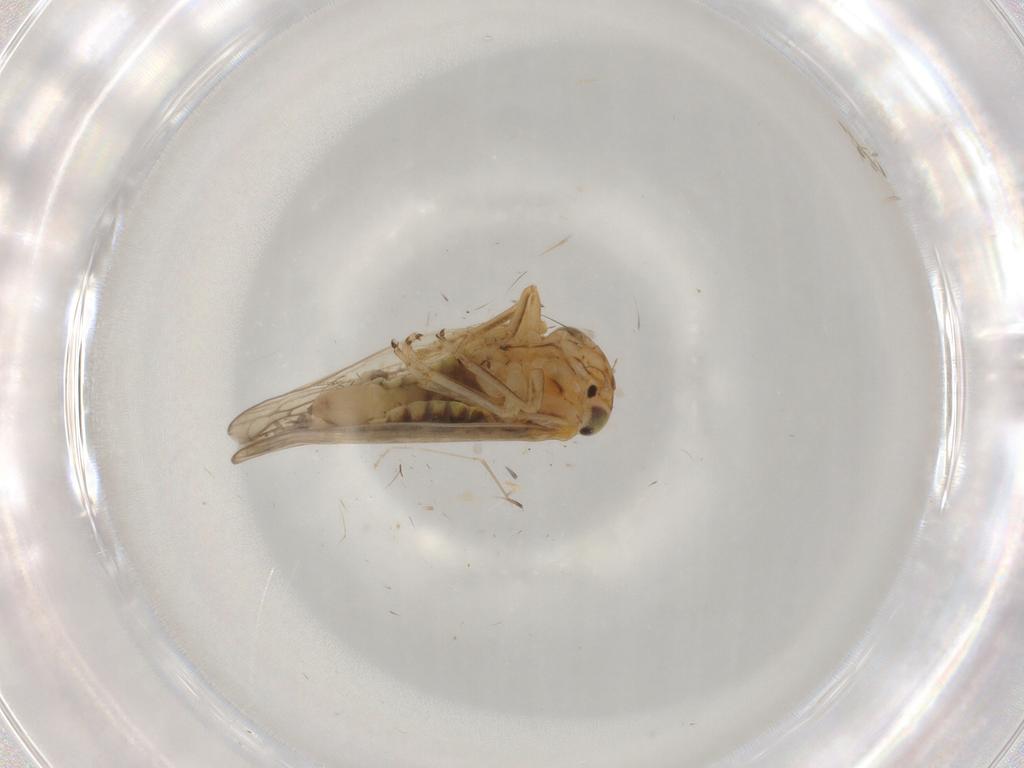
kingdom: Animalia
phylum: Arthropoda
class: Insecta
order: Hemiptera
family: Cicadellidae
